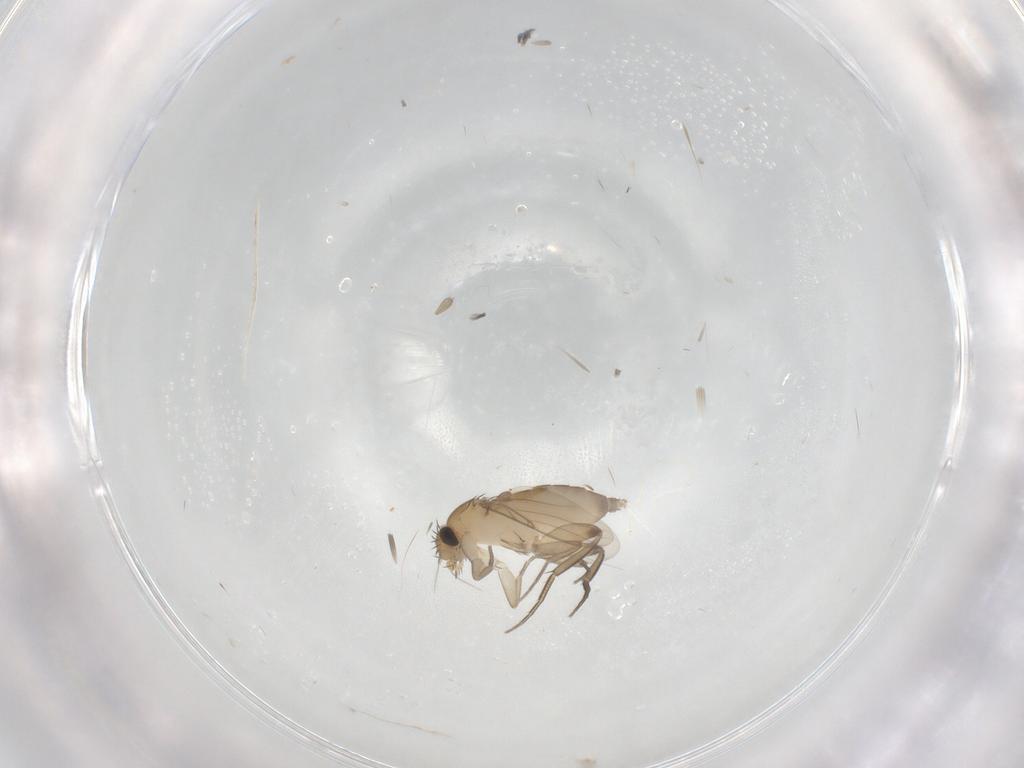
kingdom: Animalia
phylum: Arthropoda
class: Insecta
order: Diptera
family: Phoridae
